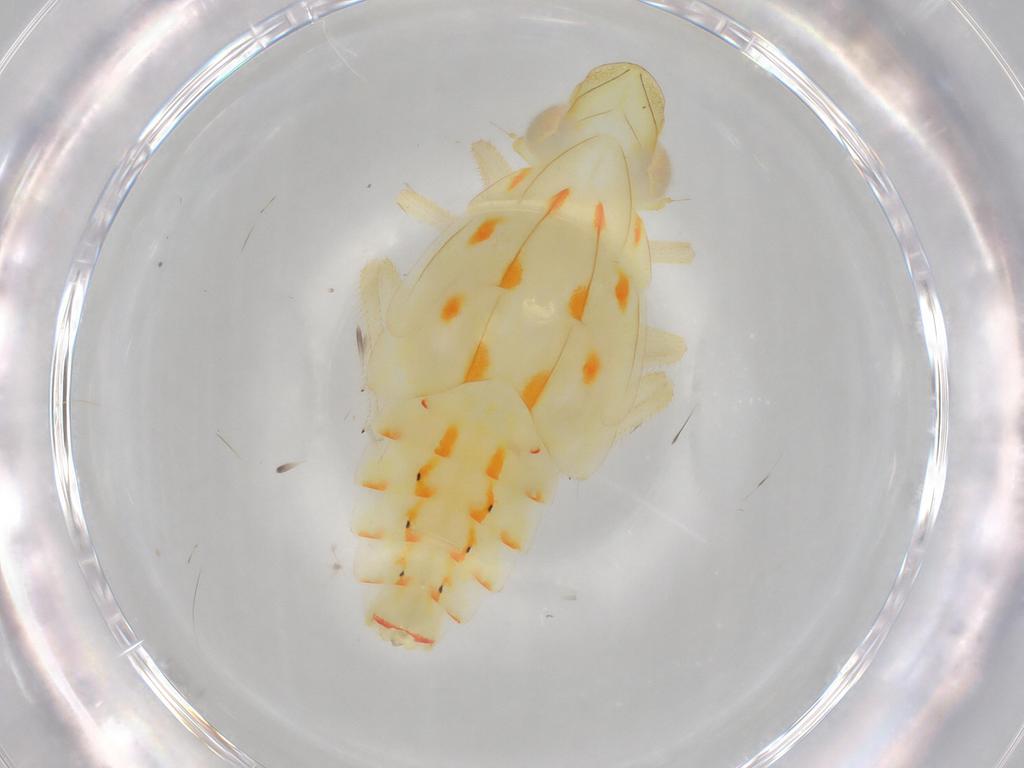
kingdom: Animalia
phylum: Arthropoda
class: Insecta
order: Hemiptera
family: Tropiduchidae
